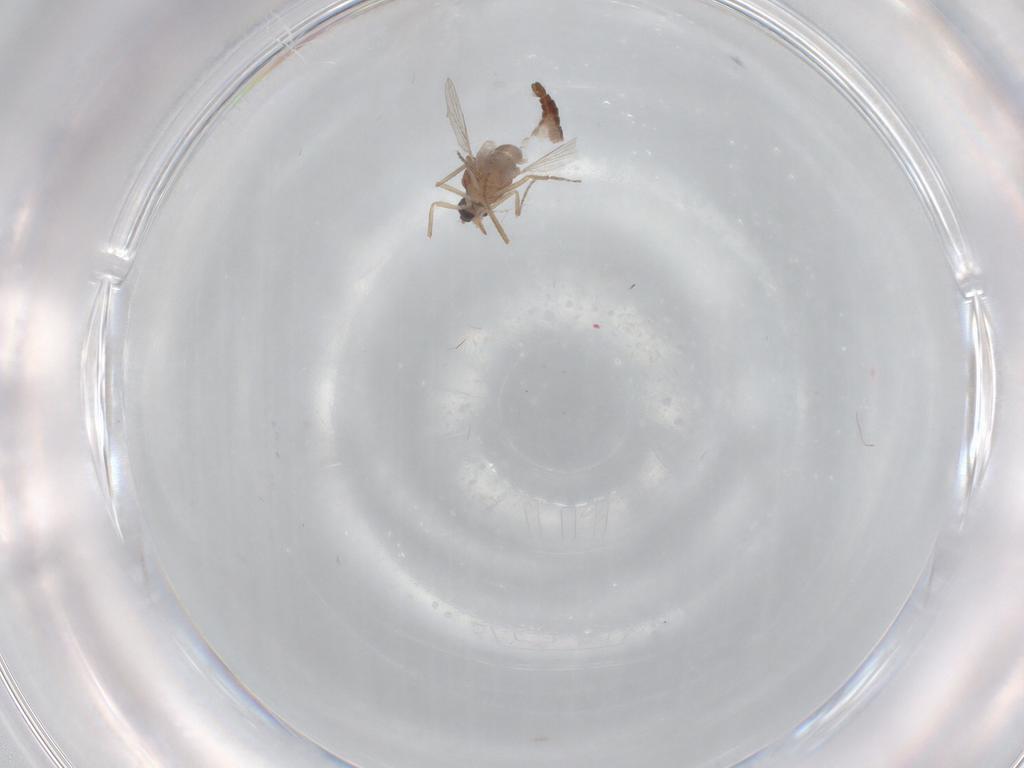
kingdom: Animalia
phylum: Arthropoda
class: Insecta
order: Diptera
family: Ceratopogonidae
